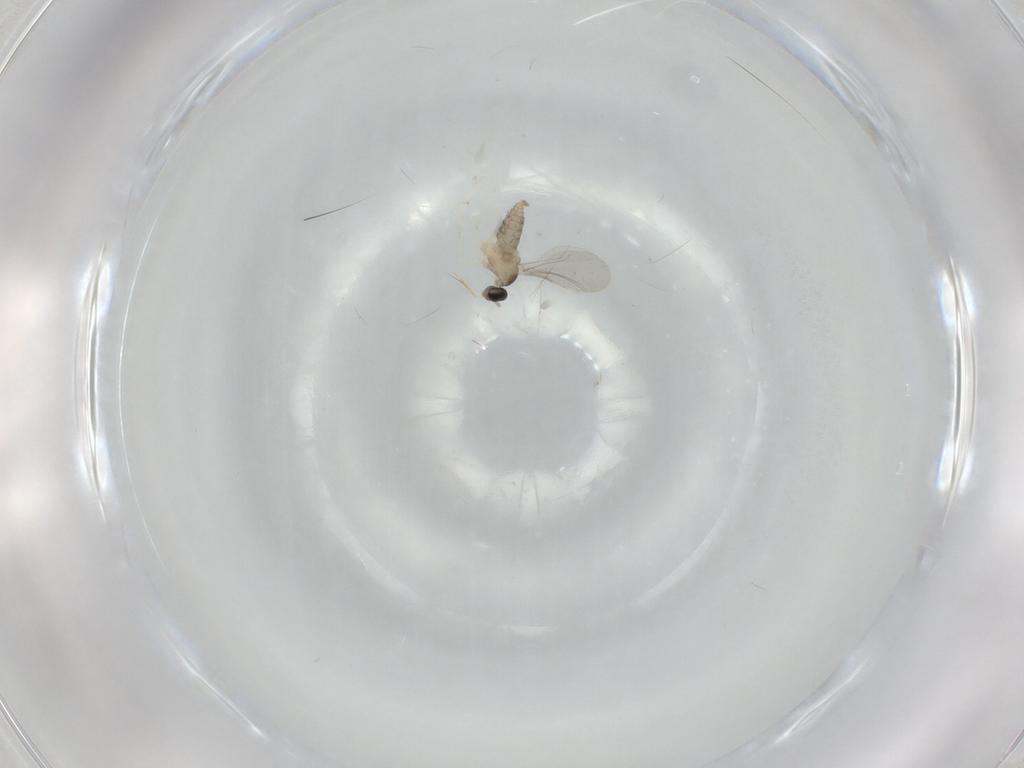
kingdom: Animalia
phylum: Arthropoda
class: Insecta
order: Diptera
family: Cecidomyiidae
